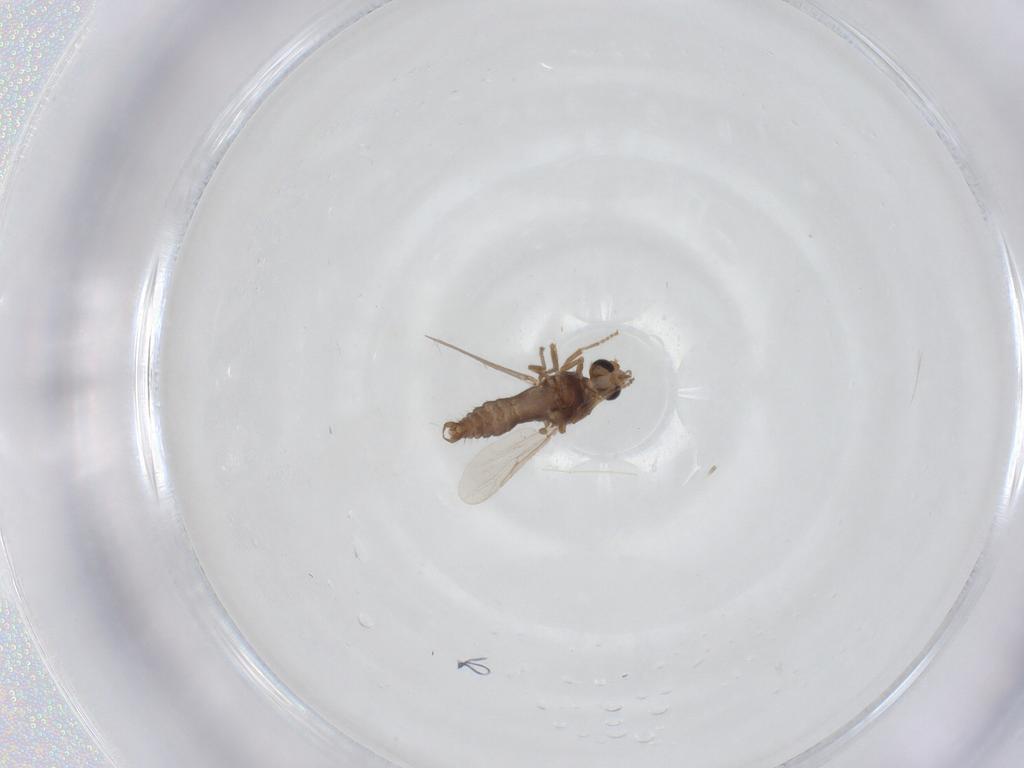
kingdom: Animalia
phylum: Arthropoda
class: Insecta
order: Diptera
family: Ceratopogonidae
